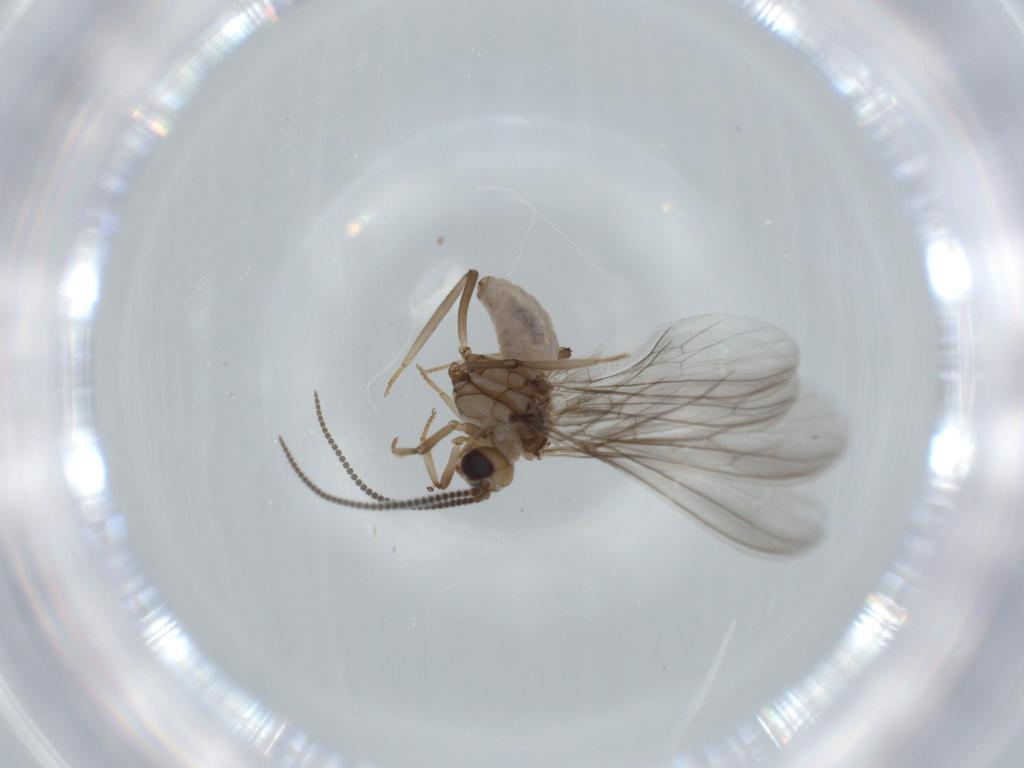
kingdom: Animalia
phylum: Arthropoda
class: Insecta
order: Neuroptera
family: Coniopterygidae
